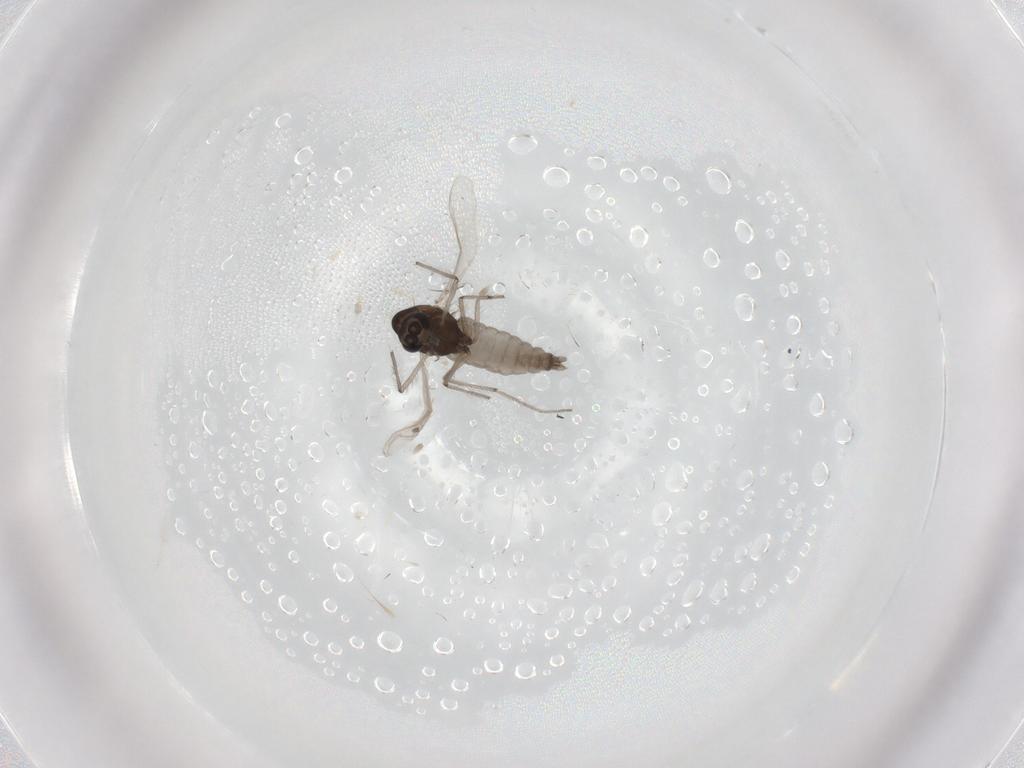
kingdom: Animalia
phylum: Arthropoda
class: Insecta
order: Diptera
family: Chironomidae
